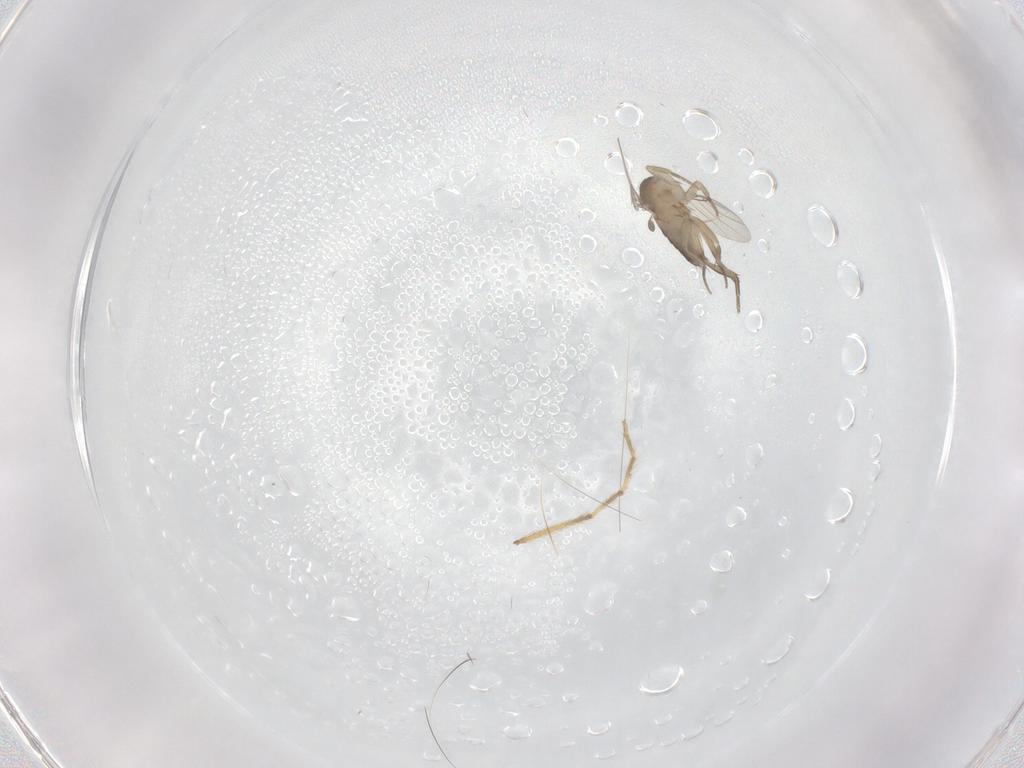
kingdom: Animalia
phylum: Arthropoda
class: Insecta
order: Diptera
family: Phoridae
